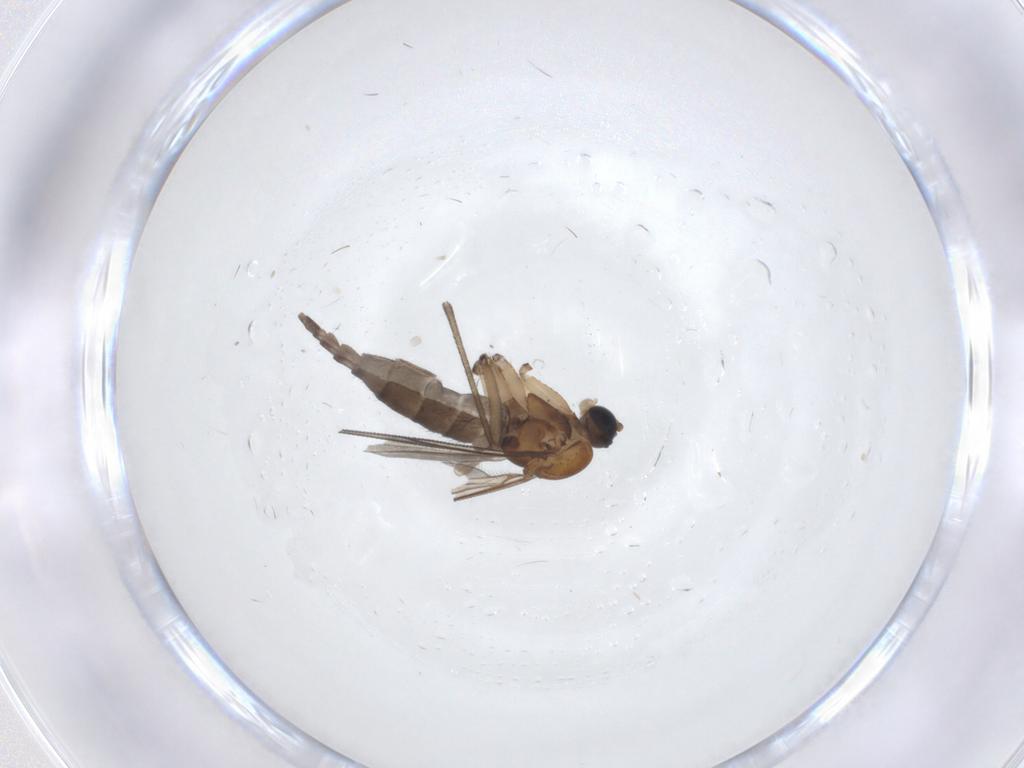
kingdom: Animalia
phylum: Arthropoda
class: Insecta
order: Diptera
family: Sciaridae
